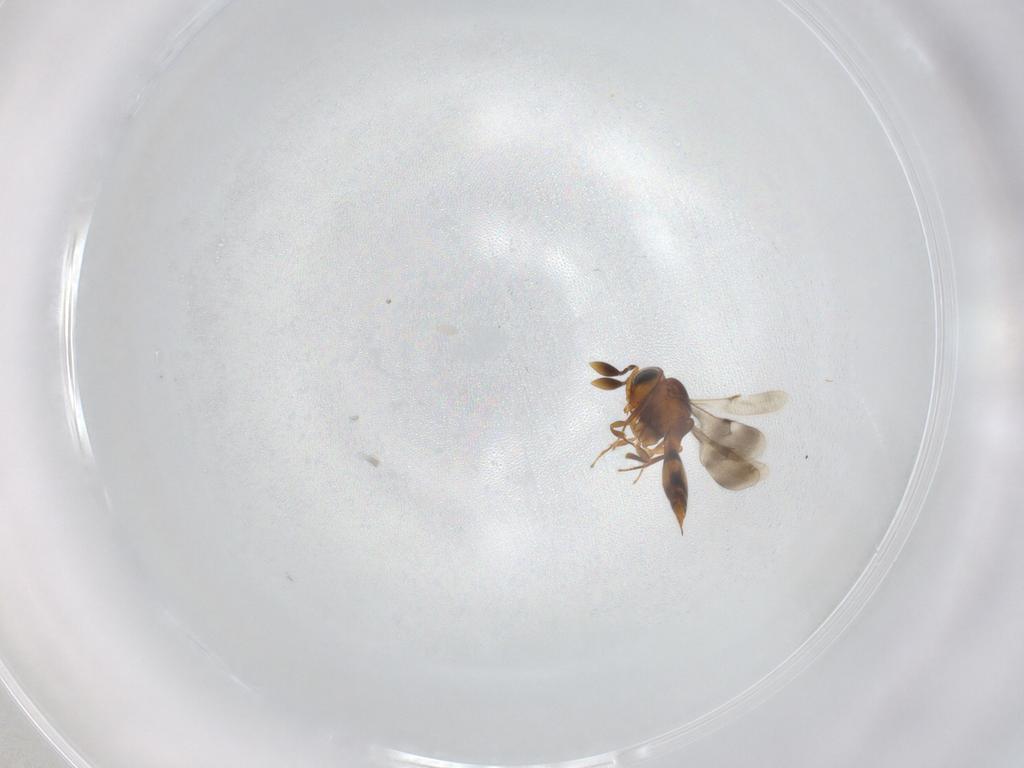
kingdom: Animalia
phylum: Arthropoda
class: Insecta
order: Hymenoptera
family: Scelionidae
